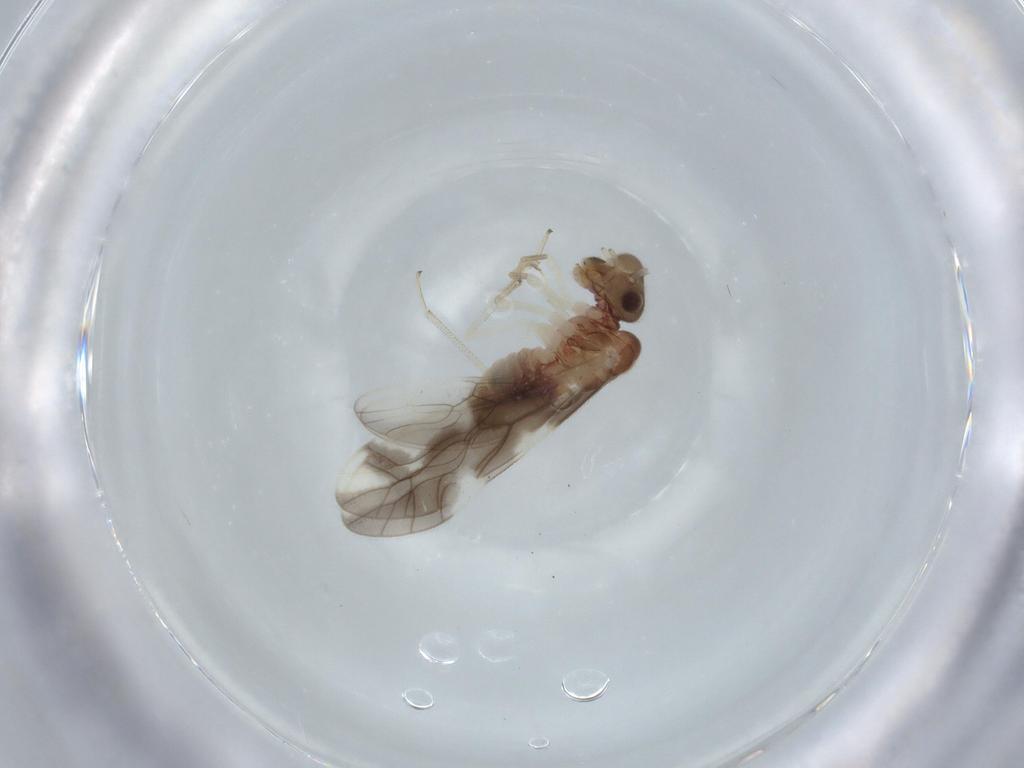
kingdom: Animalia
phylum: Arthropoda
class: Insecta
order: Psocodea
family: Caeciliusidae
